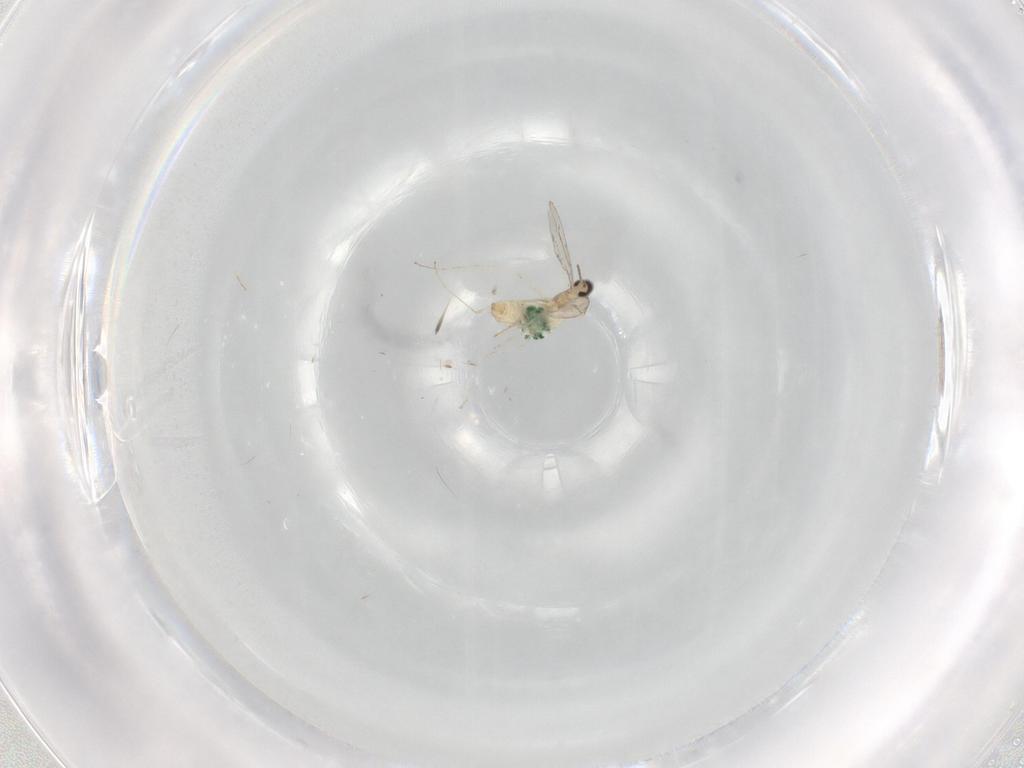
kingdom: Animalia
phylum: Arthropoda
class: Insecta
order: Diptera
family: Cecidomyiidae
